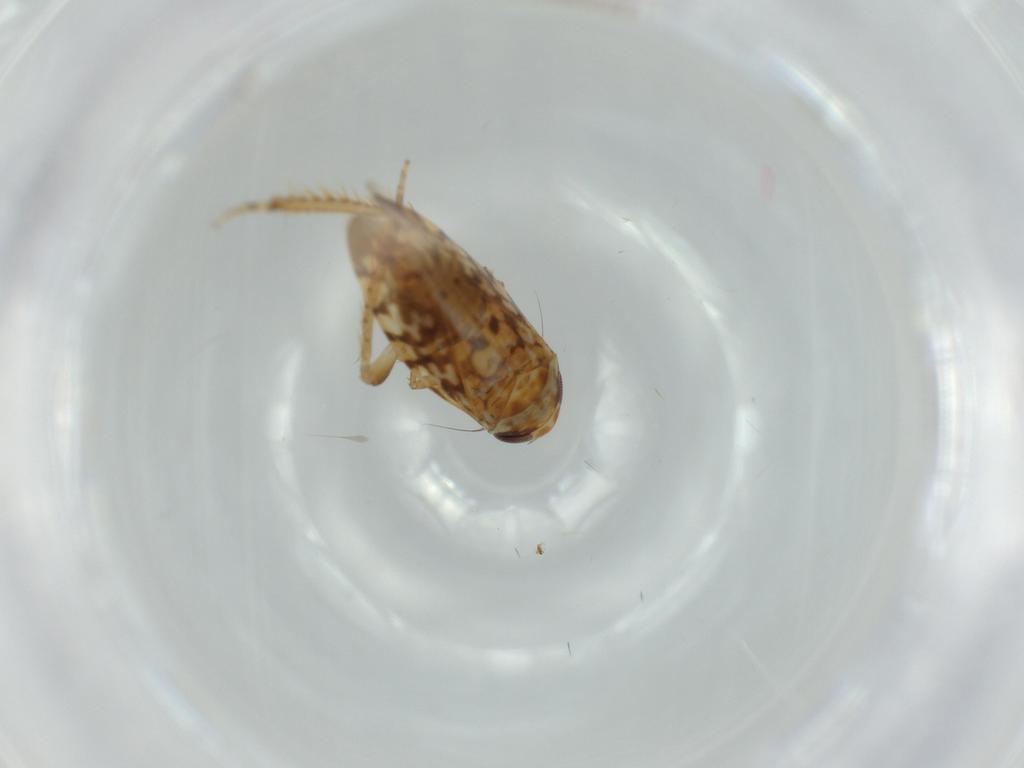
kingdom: Animalia
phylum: Arthropoda
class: Insecta
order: Hemiptera
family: Cicadellidae
